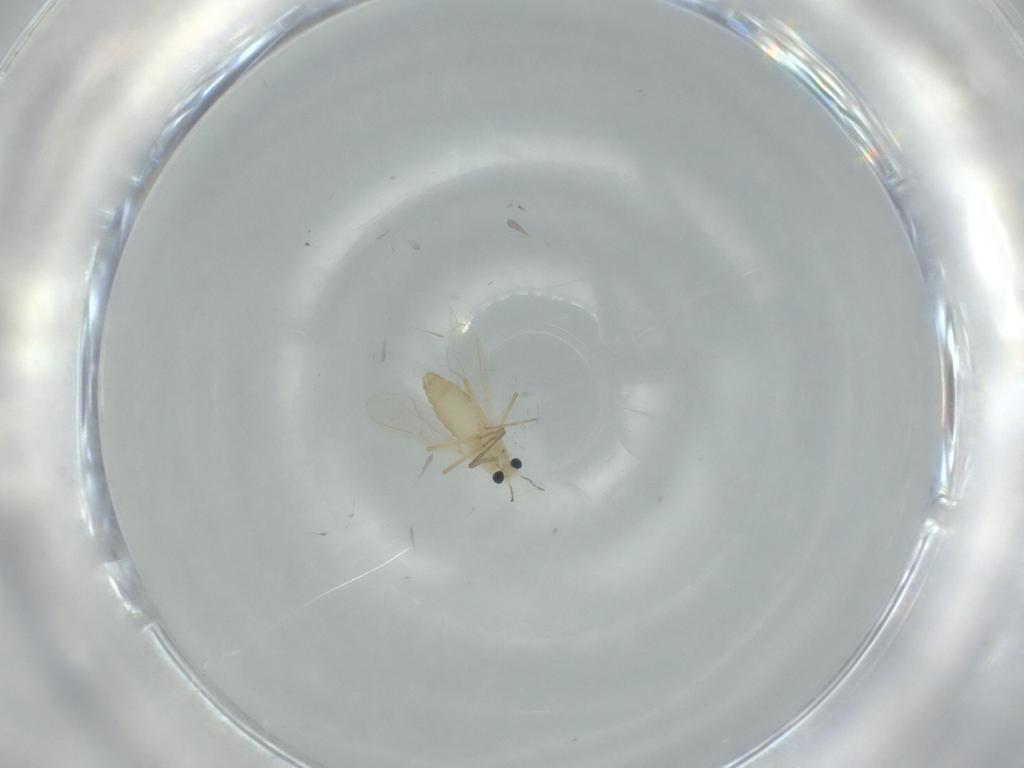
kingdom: Animalia
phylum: Arthropoda
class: Insecta
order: Diptera
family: Chironomidae
